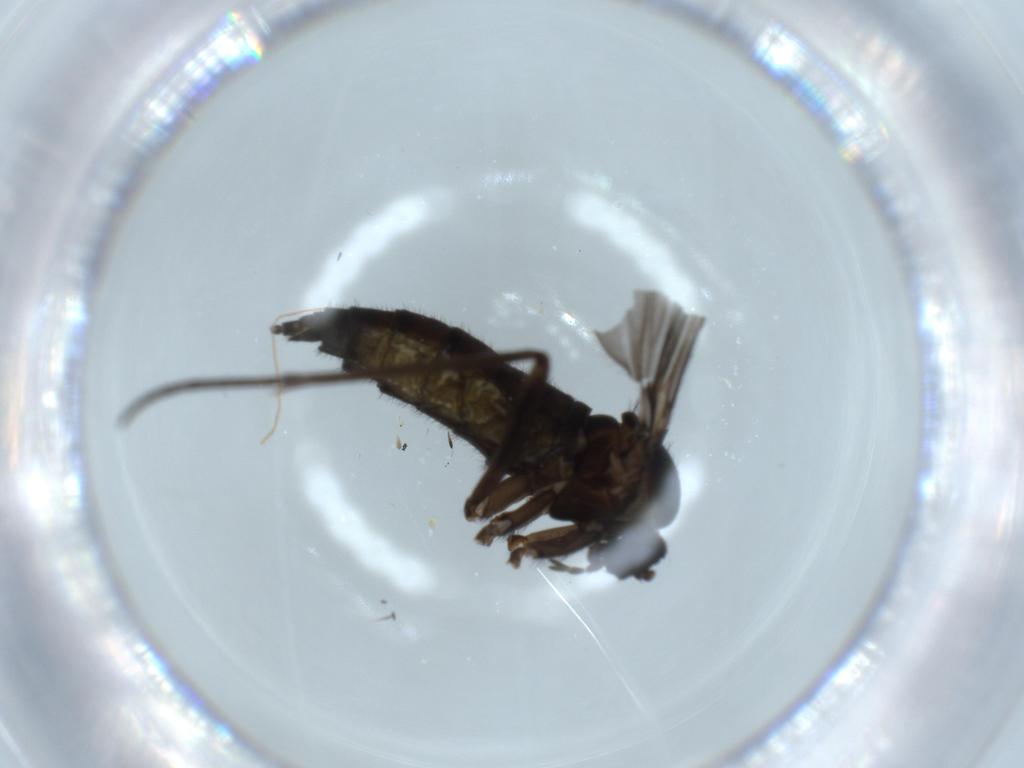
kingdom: Animalia
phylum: Arthropoda
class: Insecta
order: Diptera
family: Sciaridae
